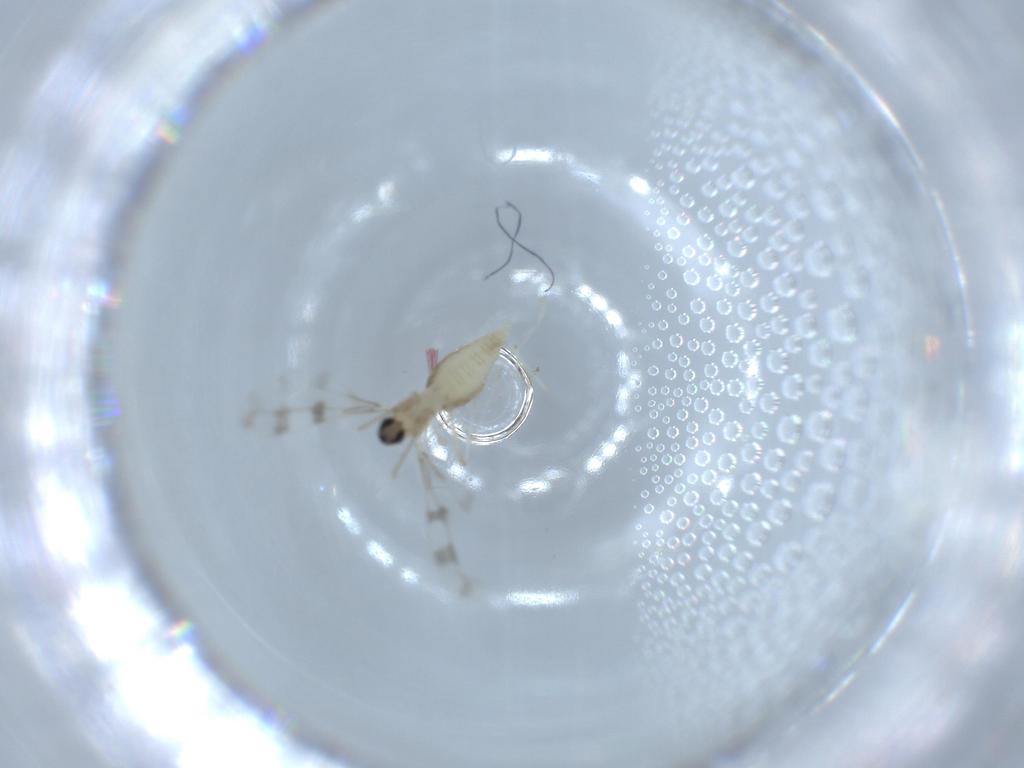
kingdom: Animalia
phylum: Arthropoda
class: Insecta
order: Diptera
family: Cecidomyiidae
